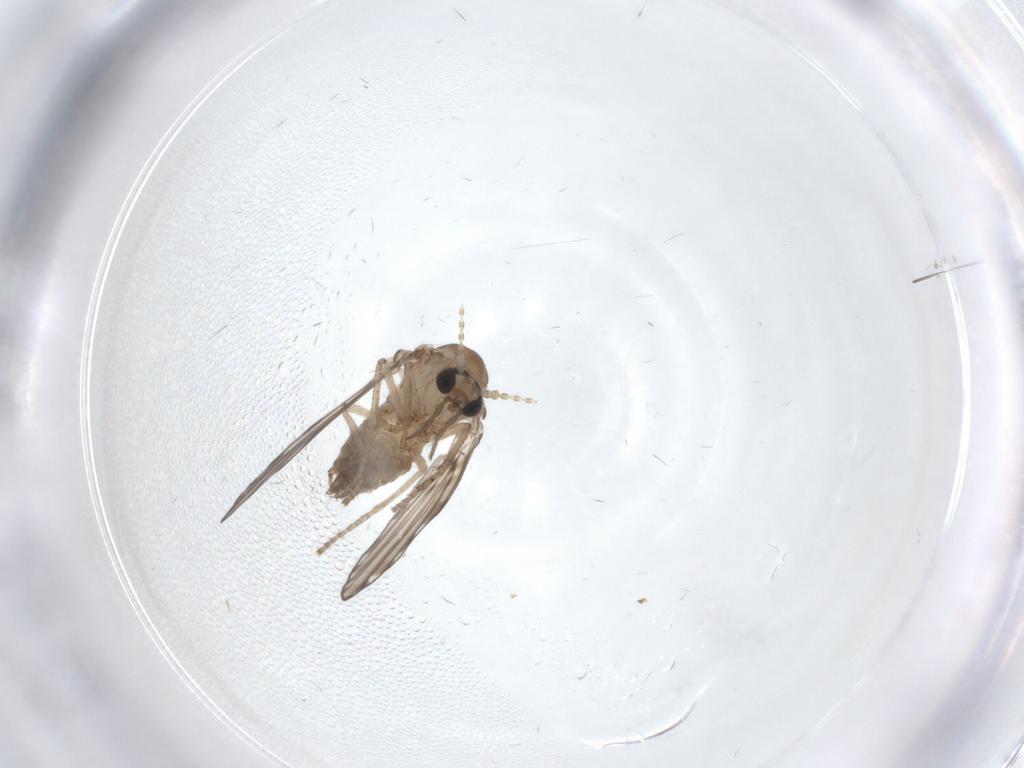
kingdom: Animalia
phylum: Arthropoda
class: Insecta
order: Diptera
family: Psychodidae
